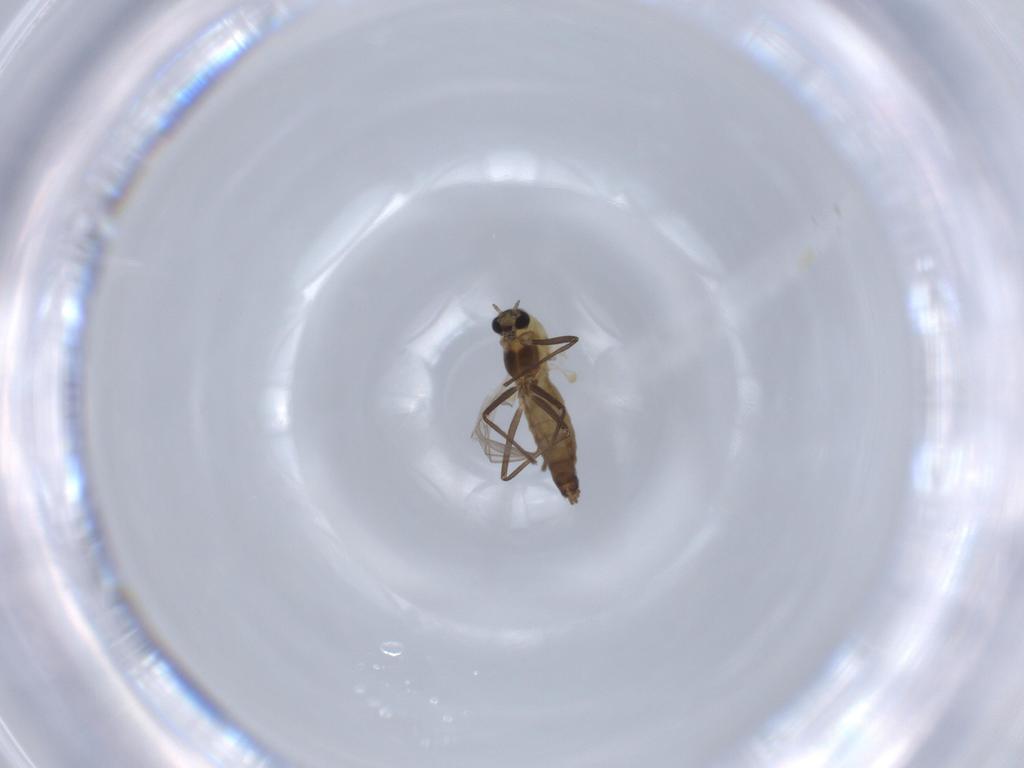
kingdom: Animalia
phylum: Arthropoda
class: Insecta
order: Diptera
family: Chironomidae
